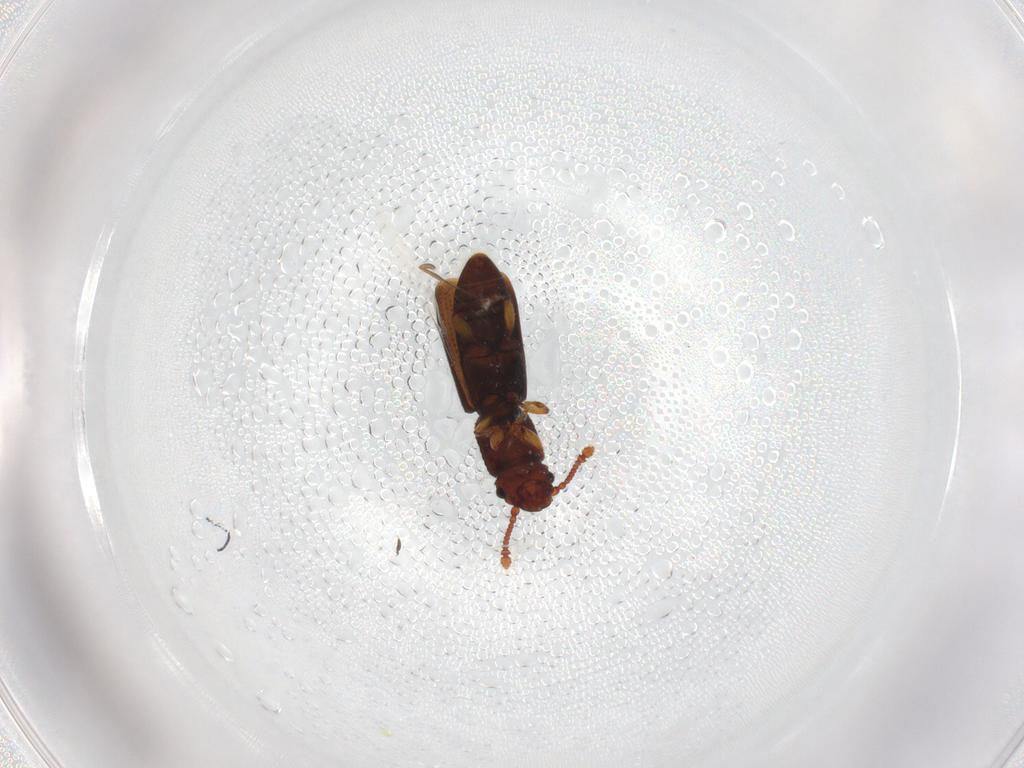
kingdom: Animalia
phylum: Arthropoda
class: Insecta
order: Coleoptera
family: Monotomidae
